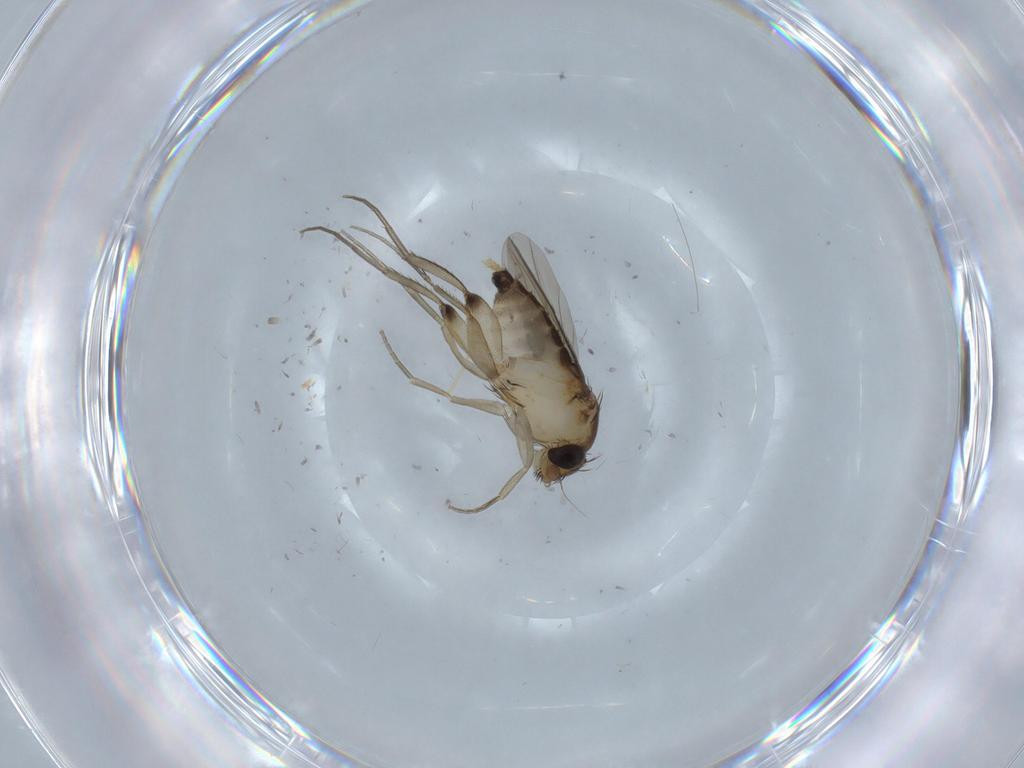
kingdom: Animalia
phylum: Arthropoda
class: Insecta
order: Diptera
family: Phoridae
